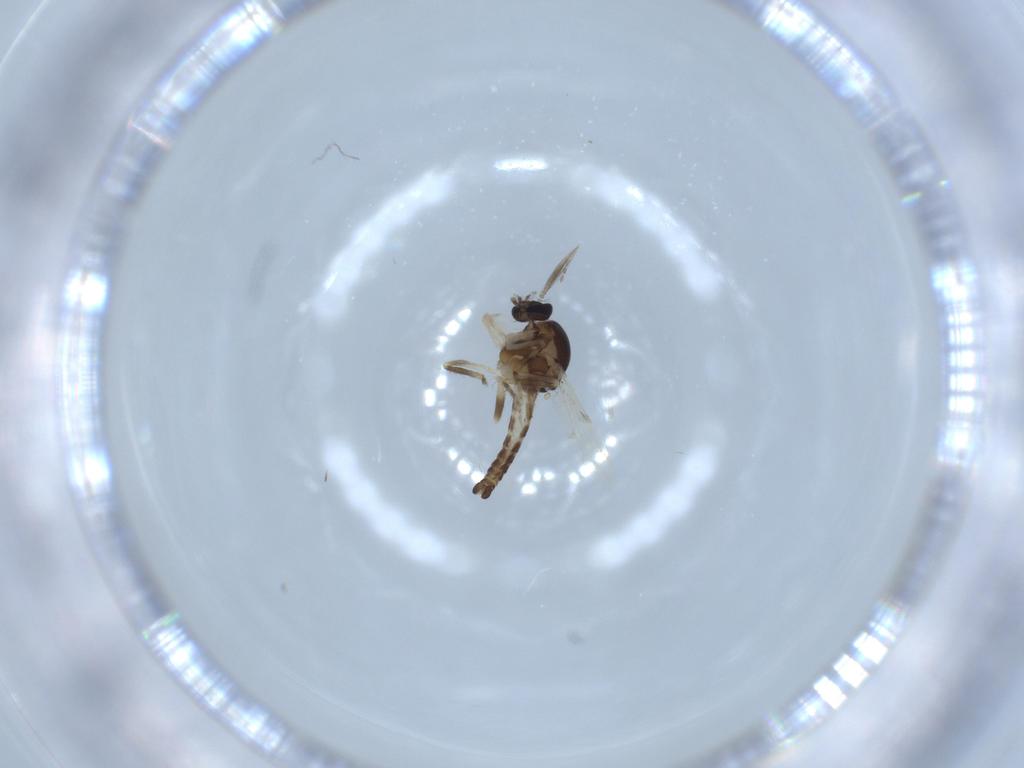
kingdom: Animalia
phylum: Arthropoda
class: Insecta
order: Diptera
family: Ceratopogonidae
